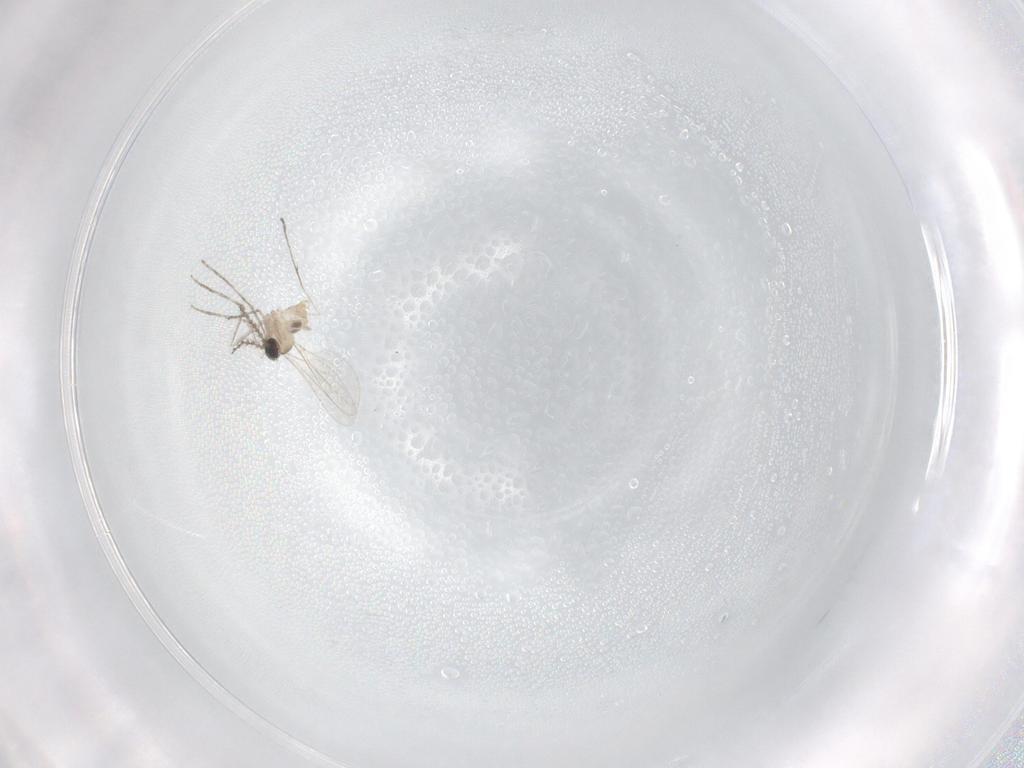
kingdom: Animalia
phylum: Arthropoda
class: Insecta
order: Diptera
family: Cecidomyiidae
